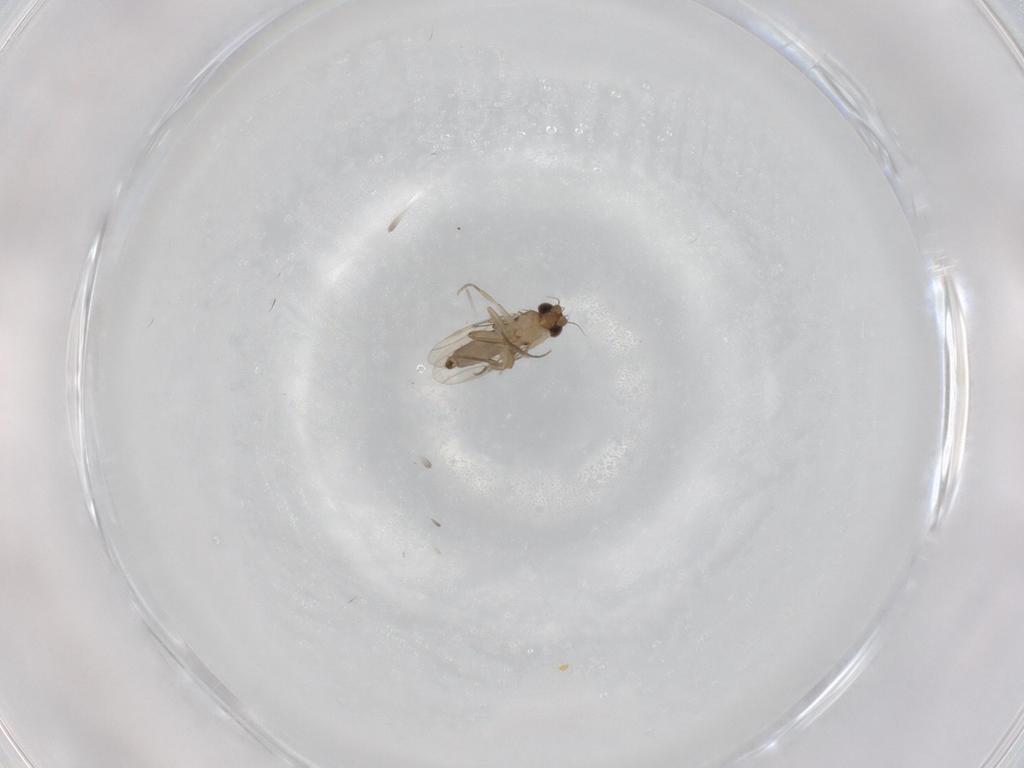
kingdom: Animalia
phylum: Arthropoda
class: Insecta
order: Diptera
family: Phoridae
